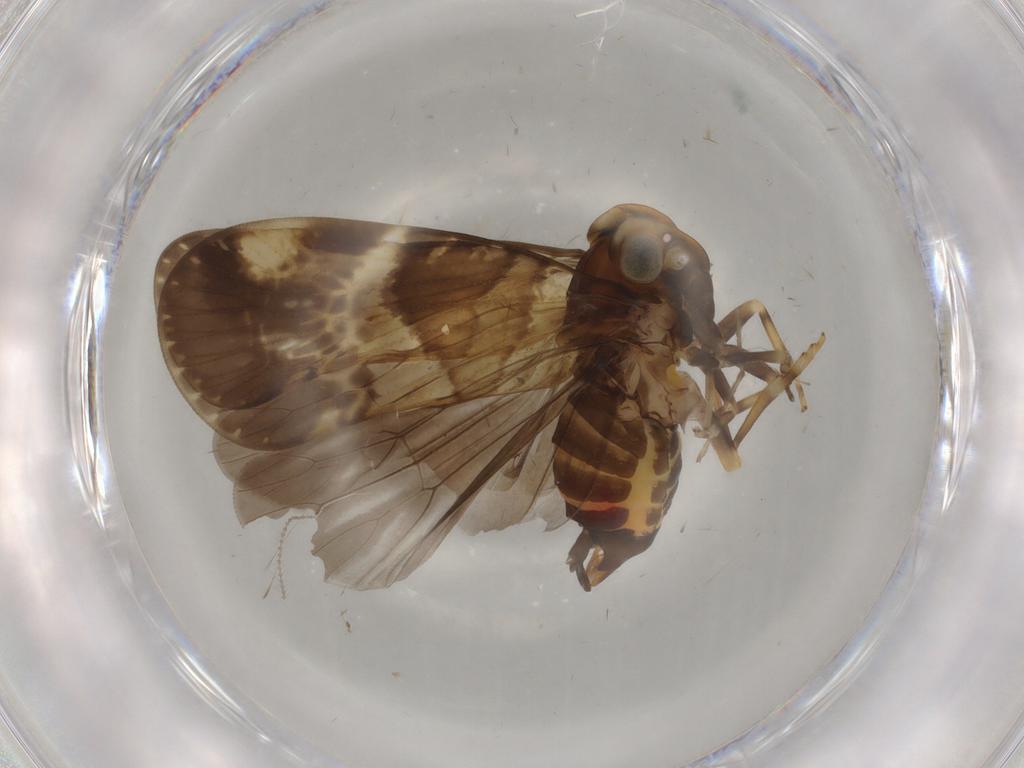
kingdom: Animalia
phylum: Arthropoda
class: Insecta
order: Hemiptera
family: Cixiidae
